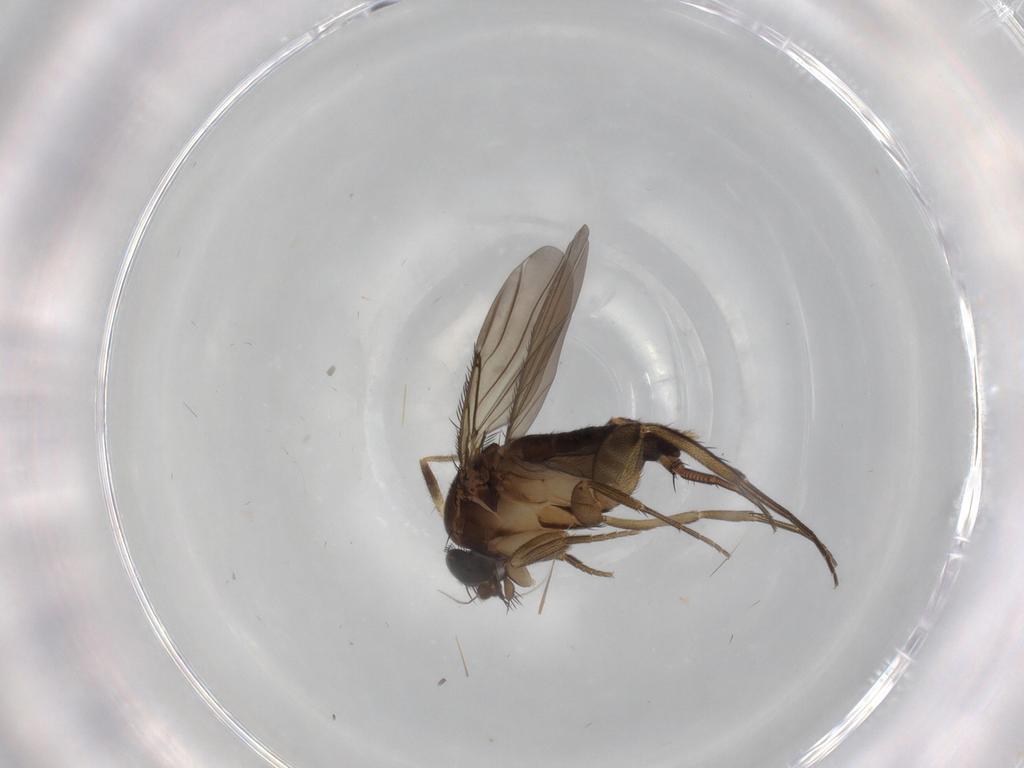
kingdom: Animalia
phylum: Arthropoda
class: Insecta
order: Diptera
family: Phoridae
